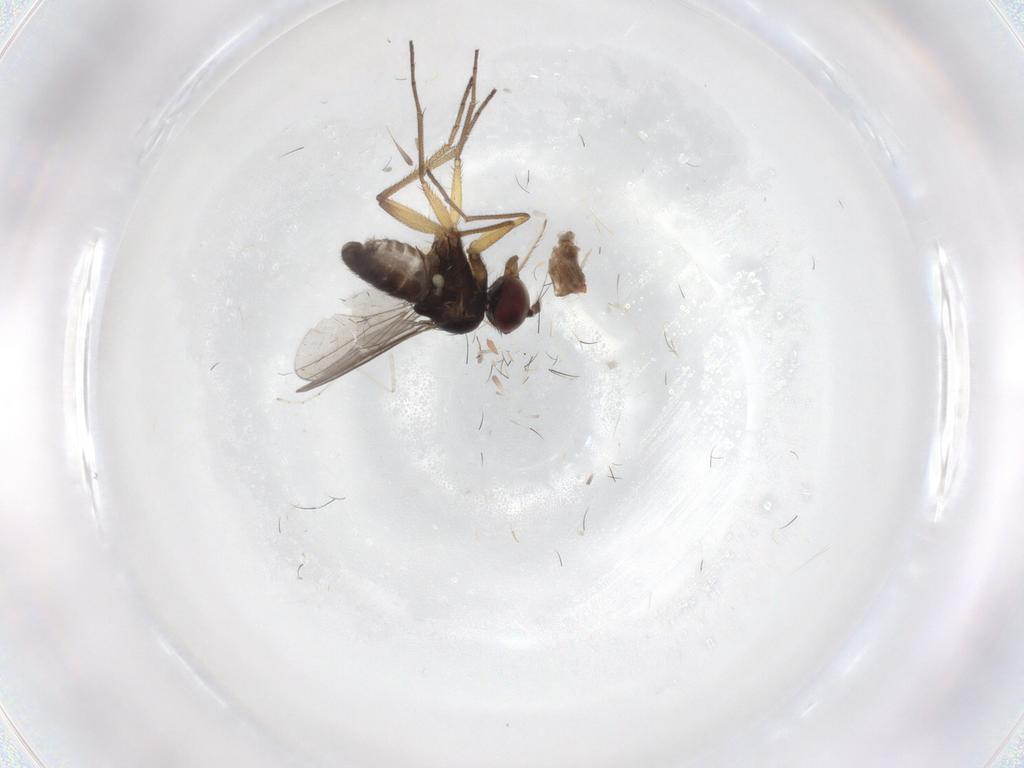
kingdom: Animalia
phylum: Arthropoda
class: Insecta
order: Diptera
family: Dolichopodidae
